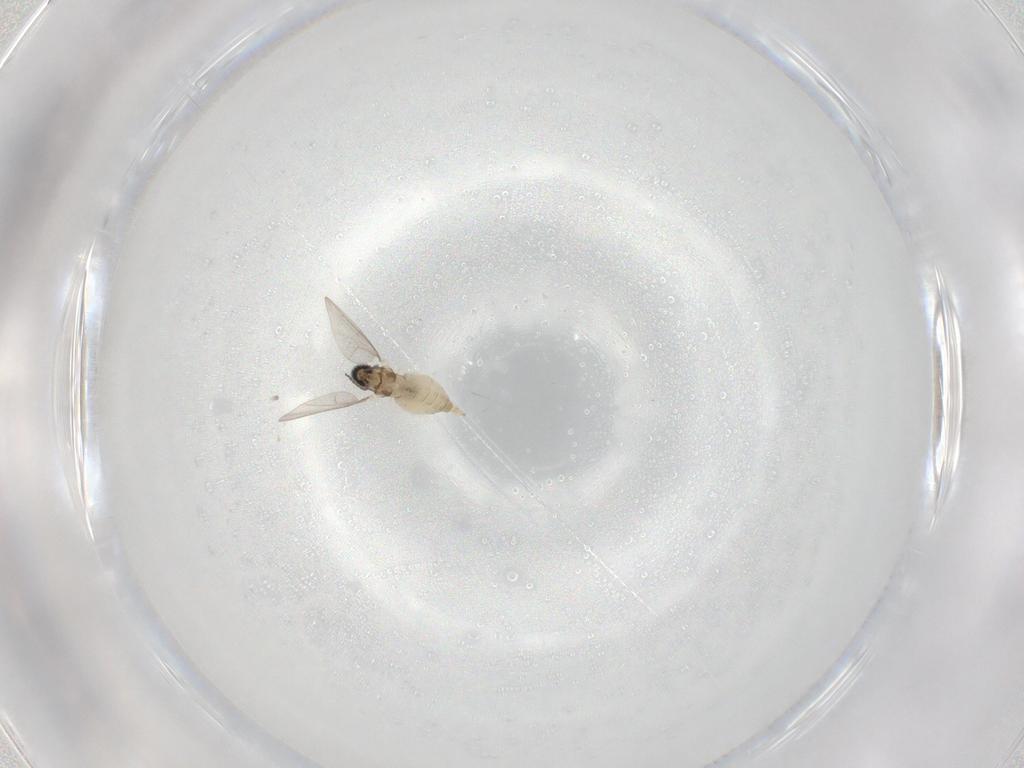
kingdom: Animalia
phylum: Arthropoda
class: Insecta
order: Diptera
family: Cecidomyiidae
